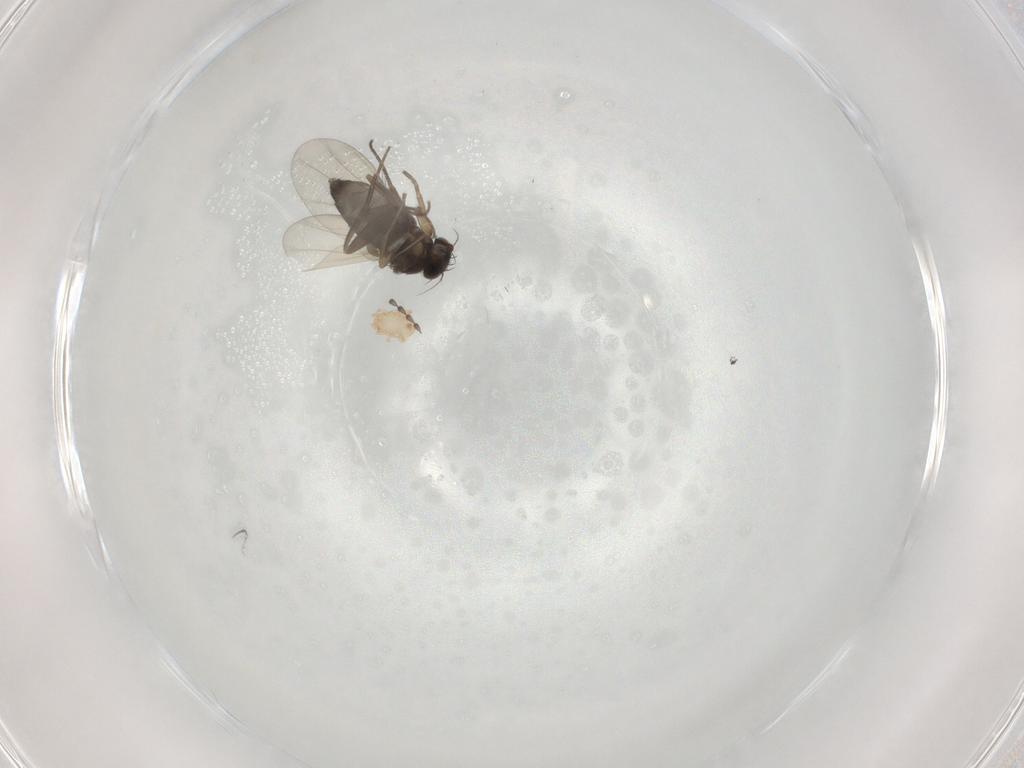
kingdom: Animalia
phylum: Arthropoda
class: Insecta
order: Diptera
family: Phoridae
